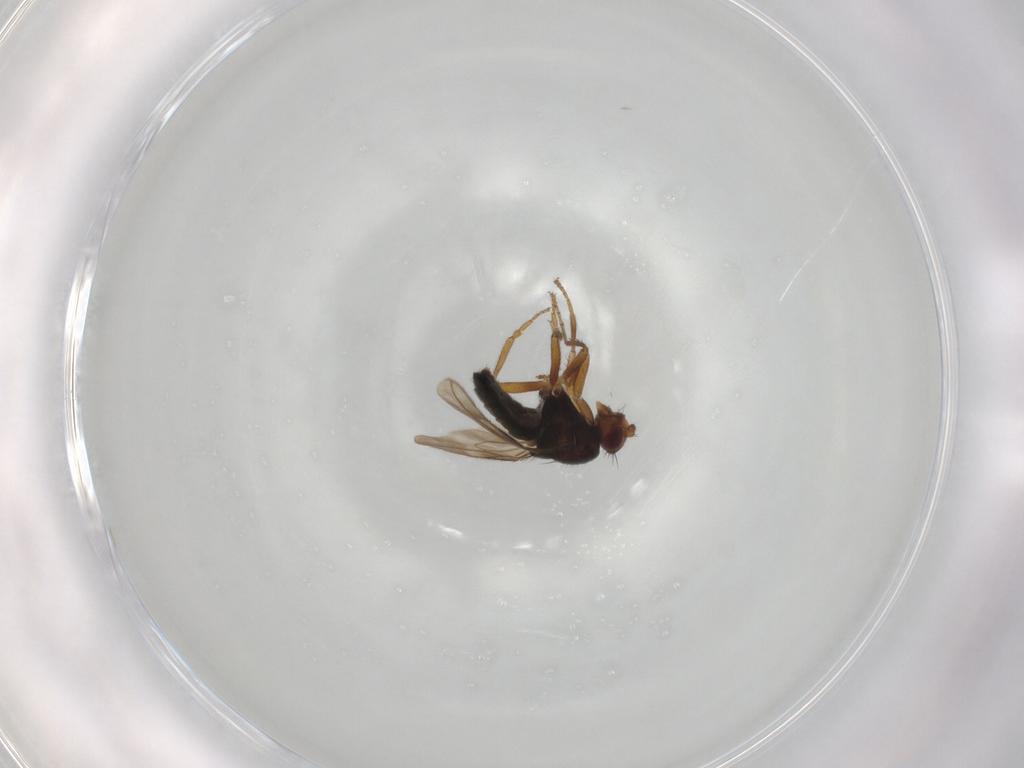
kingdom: Animalia
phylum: Arthropoda
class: Insecta
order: Diptera
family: Sphaeroceridae
